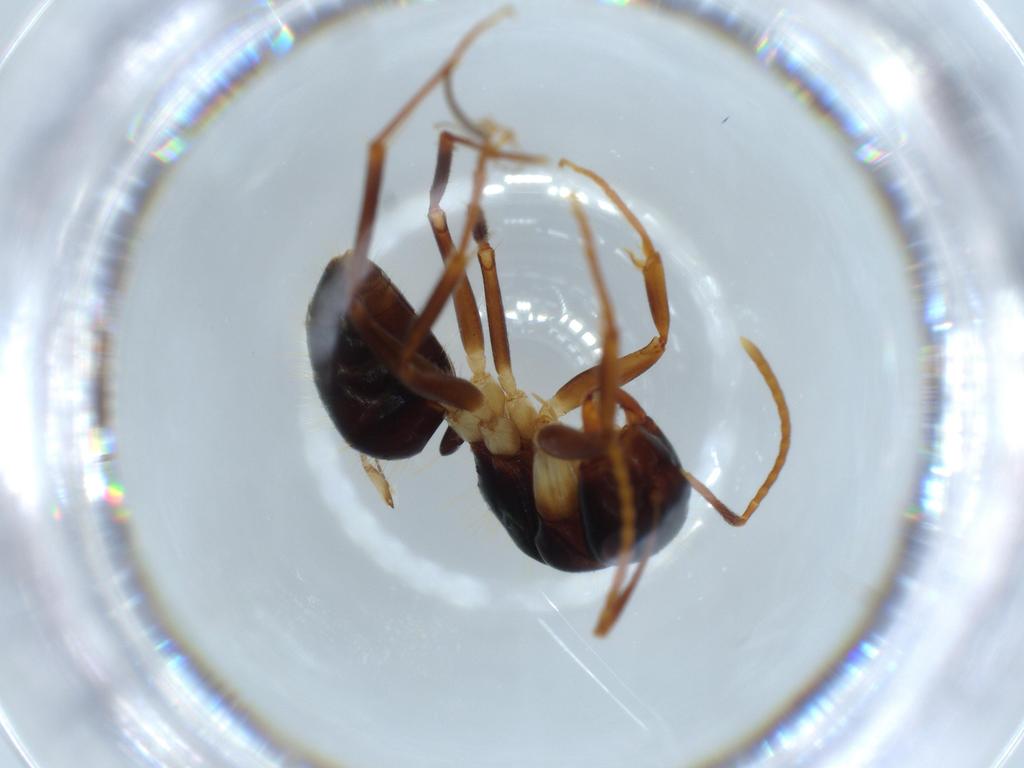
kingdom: Animalia
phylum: Arthropoda
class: Insecta
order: Hymenoptera
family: Formicidae
